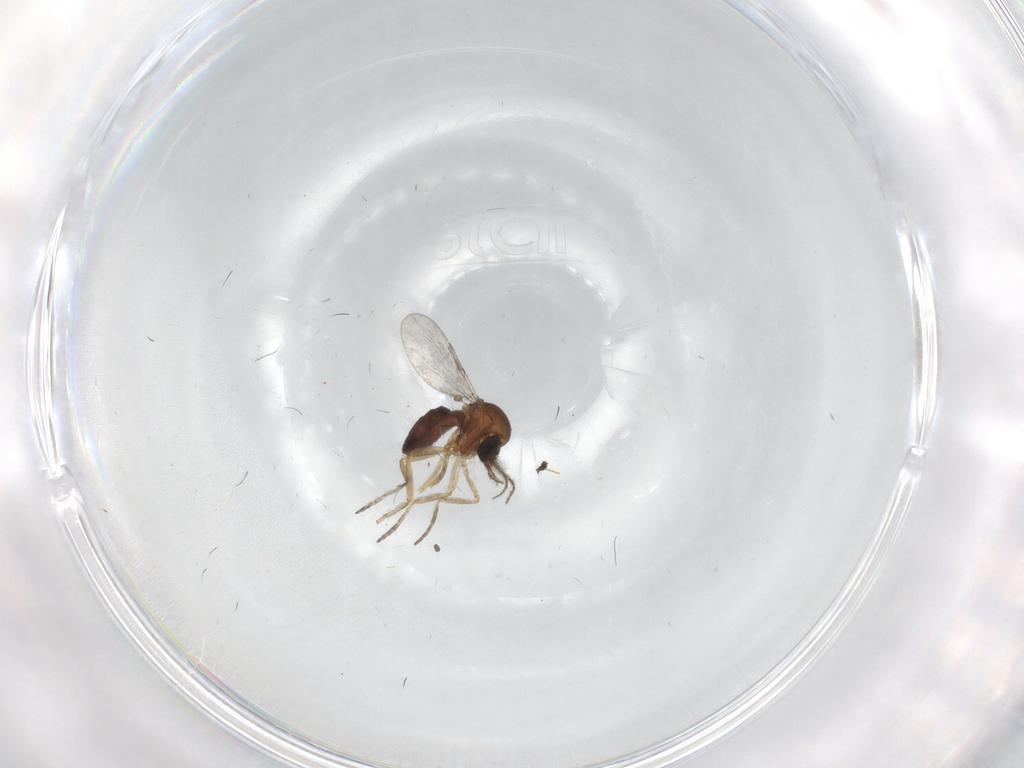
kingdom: Animalia
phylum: Arthropoda
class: Insecta
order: Diptera
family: Ceratopogonidae
